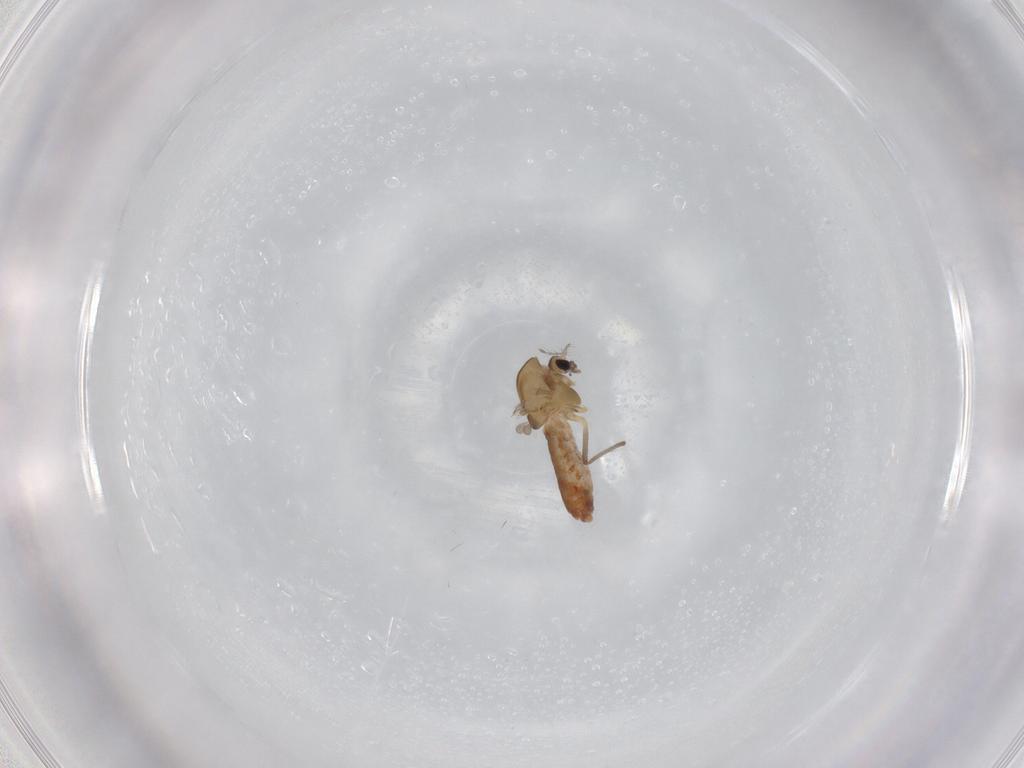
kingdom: Animalia
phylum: Arthropoda
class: Insecta
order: Diptera
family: Chironomidae
